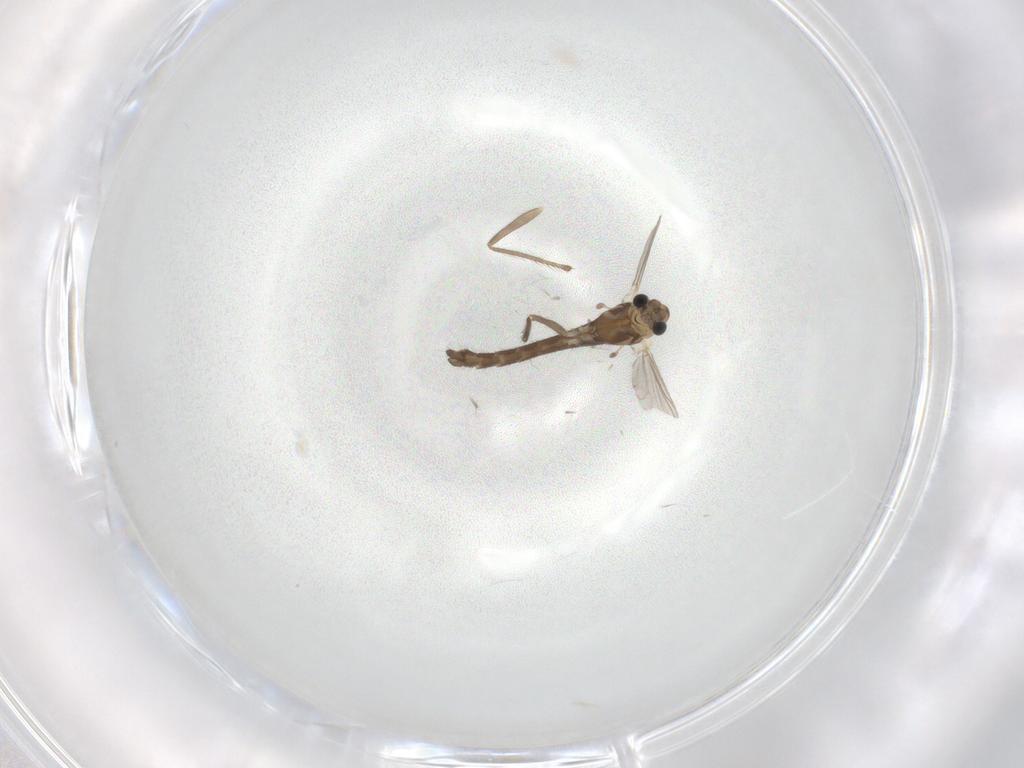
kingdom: Animalia
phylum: Arthropoda
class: Insecta
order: Diptera
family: Chironomidae
